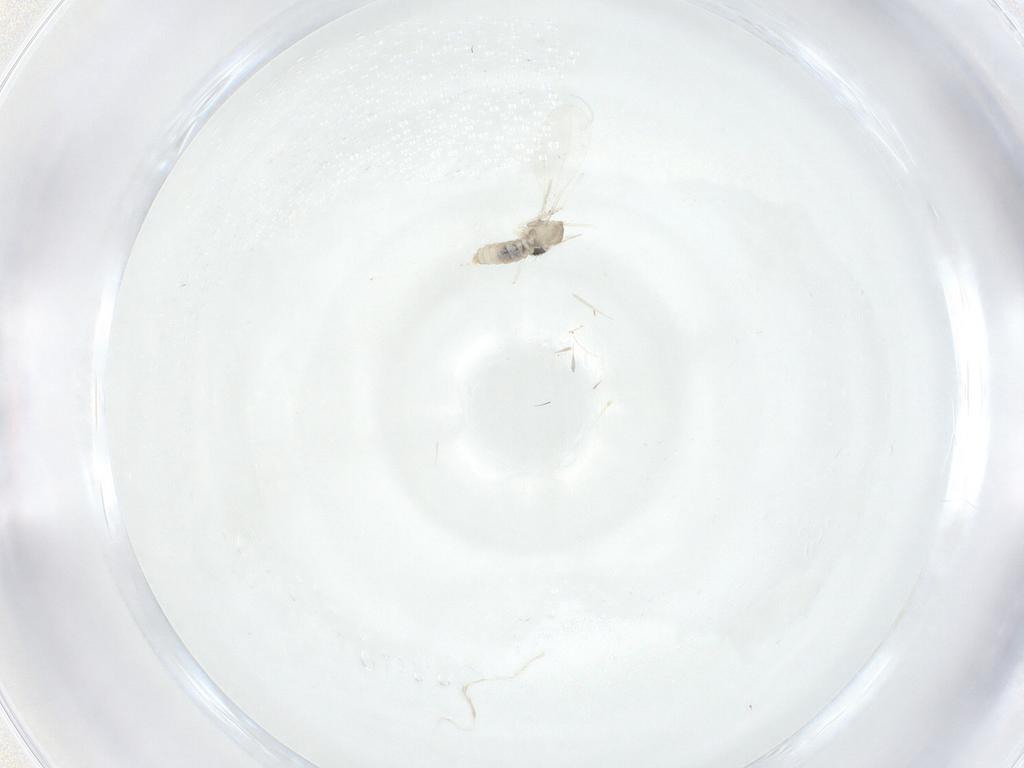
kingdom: Animalia
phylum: Arthropoda
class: Insecta
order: Diptera
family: Cecidomyiidae
